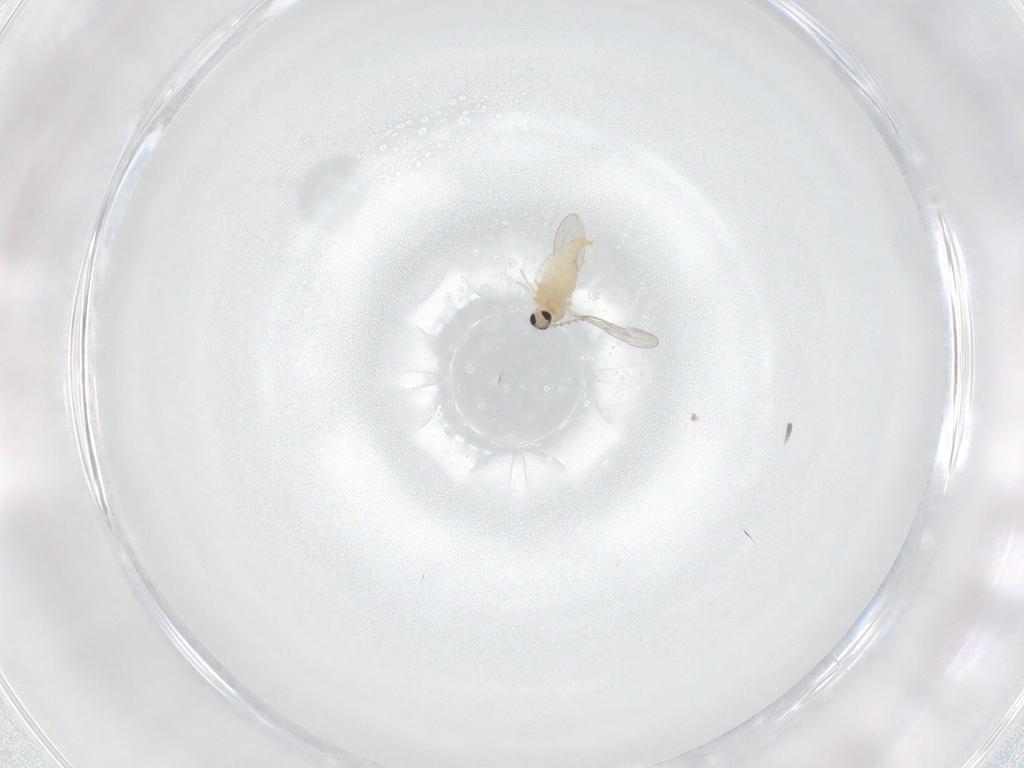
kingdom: Animalia
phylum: Arthropoda
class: Insecta
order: Diptera
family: Cecidomyiidae
